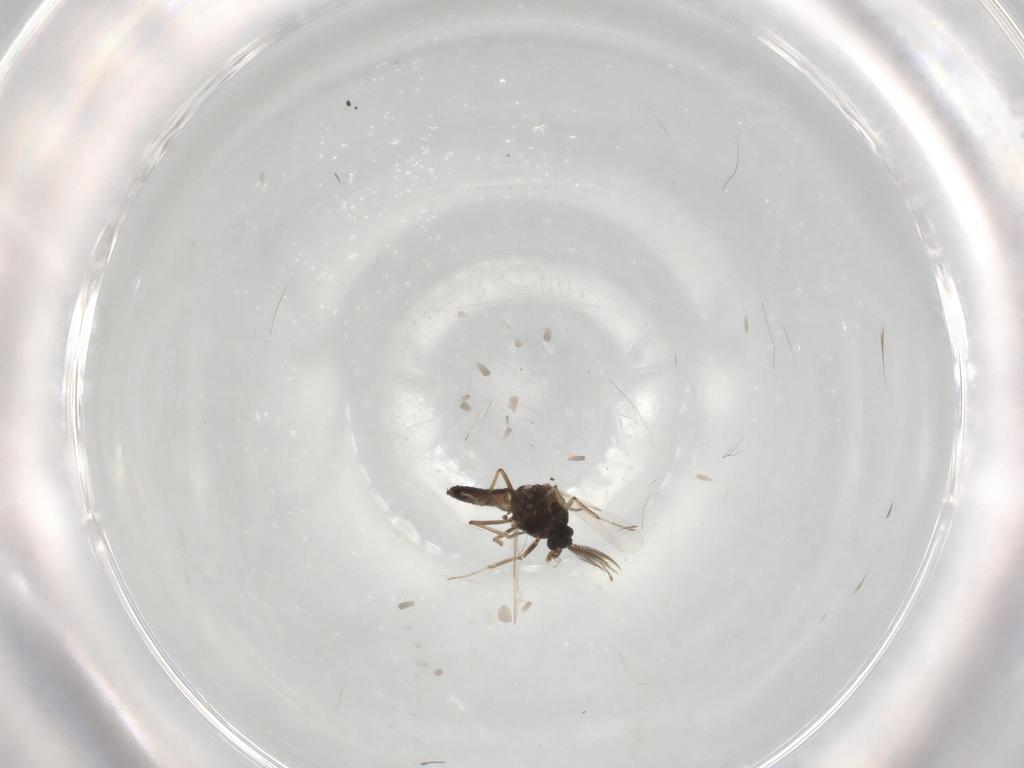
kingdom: Animalia
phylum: Arthropoda
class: Insecta
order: Diptera
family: Ceratopogonidae
